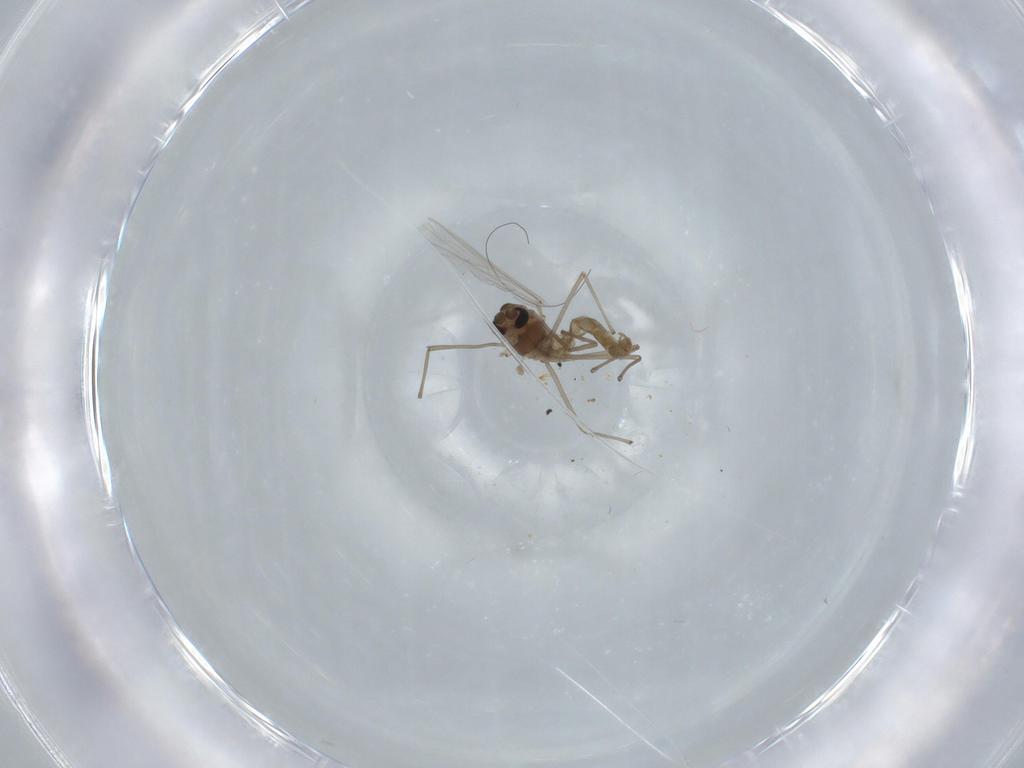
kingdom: Animalia
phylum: Arthropoda
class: Insecta
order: Diptera
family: Chironomidae
